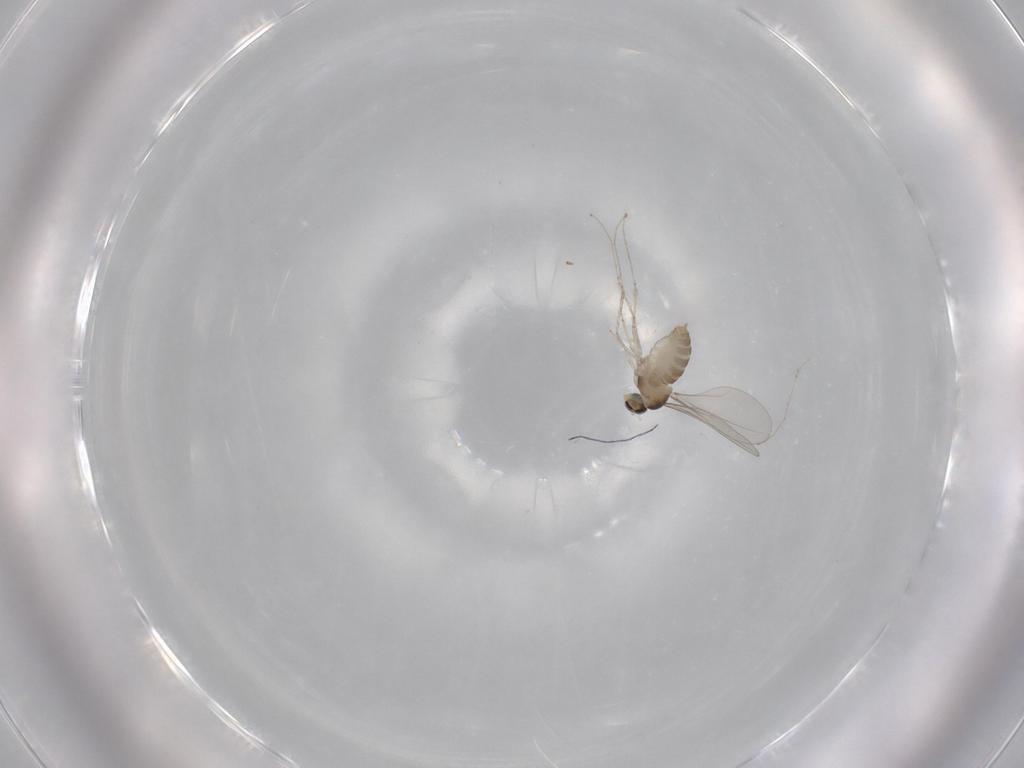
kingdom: Animalia
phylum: Arthropoda
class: Insecta
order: Diptera
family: Cecidomyiidae
